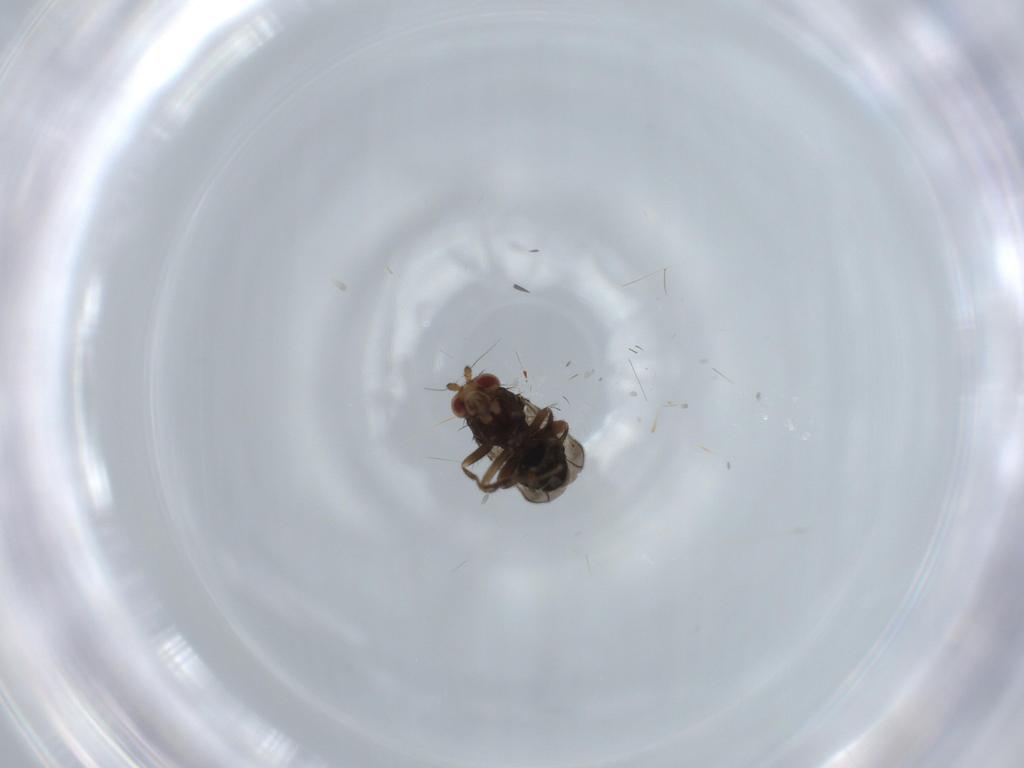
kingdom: Animalia
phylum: Arthropoda
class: Insecta
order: Diptera
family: Cecidomyiidae
